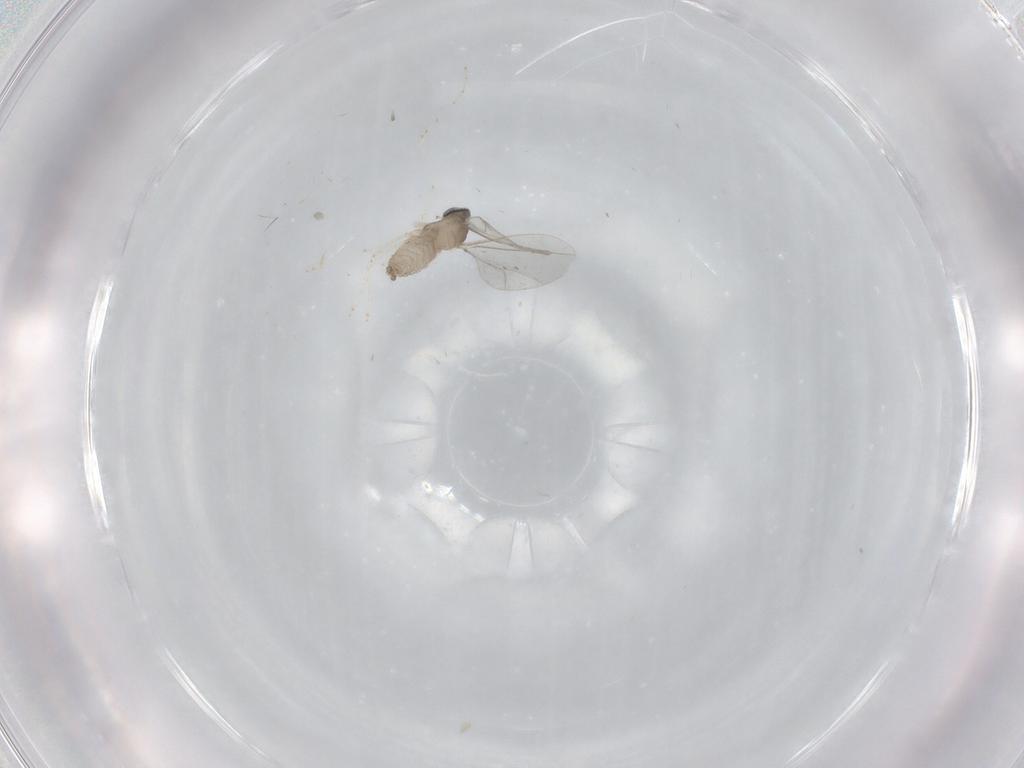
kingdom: Animalia
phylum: Arthropoda
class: Insecta
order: Diptera
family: Cecidomyiidae
